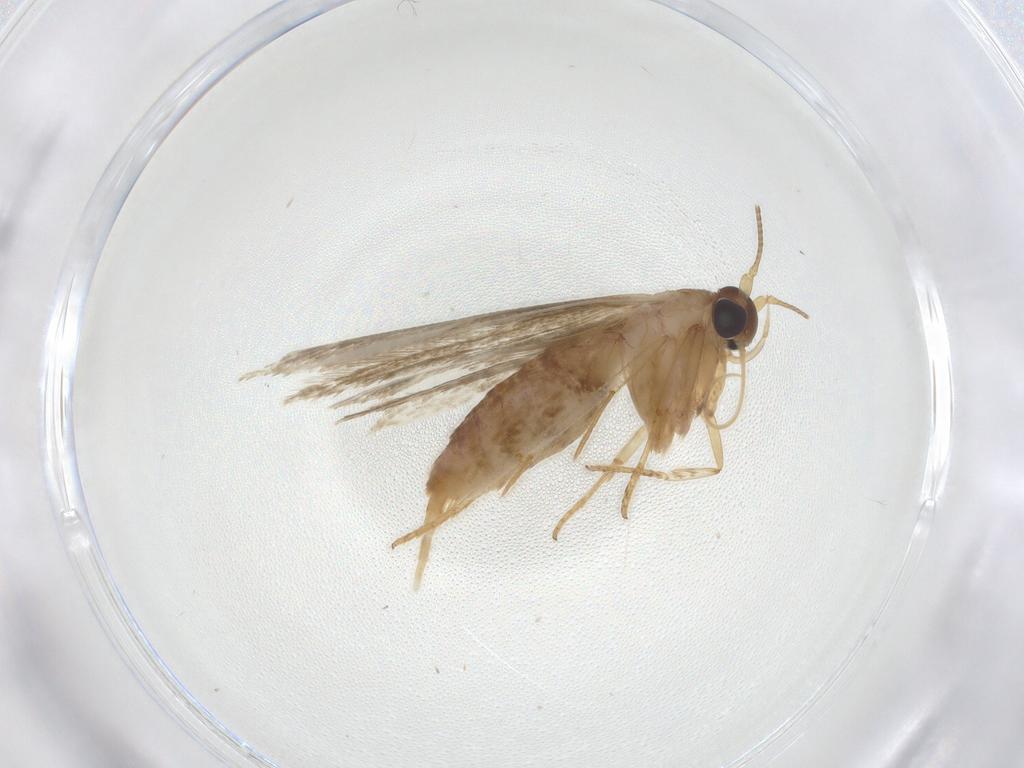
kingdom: Animalia
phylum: Arthropoda
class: Insecta
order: Lepidoptera
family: Blastobasidae
